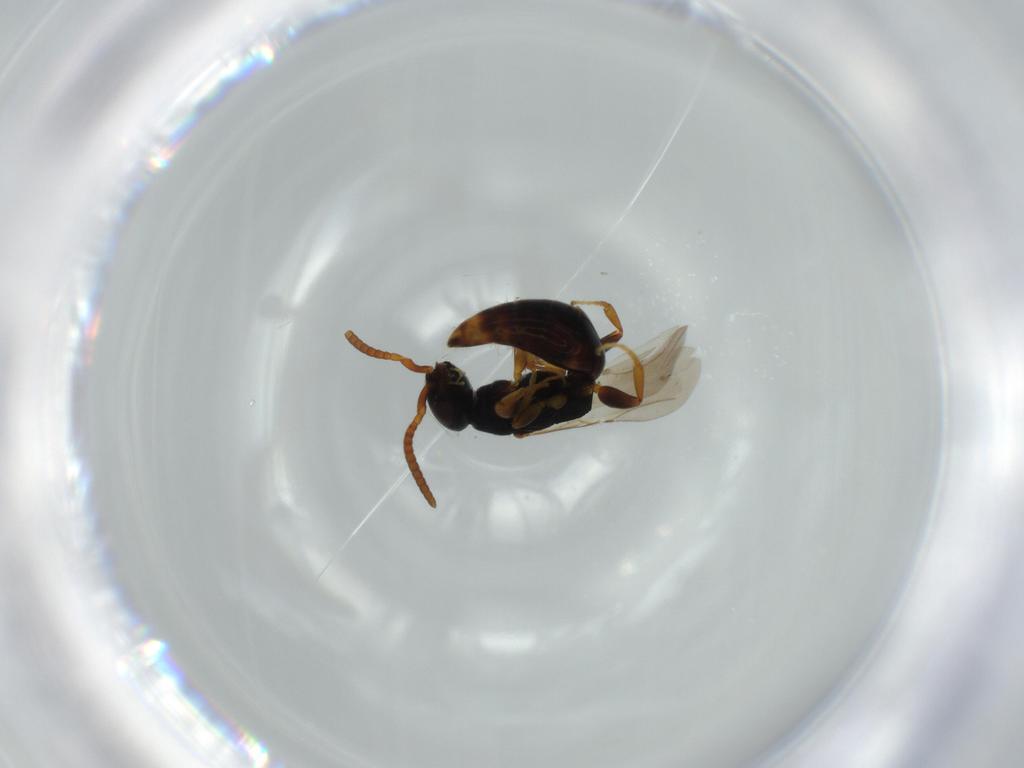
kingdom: Animalia
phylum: Arthropoda
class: Insecta
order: Hymenoptera
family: Bethylidae
